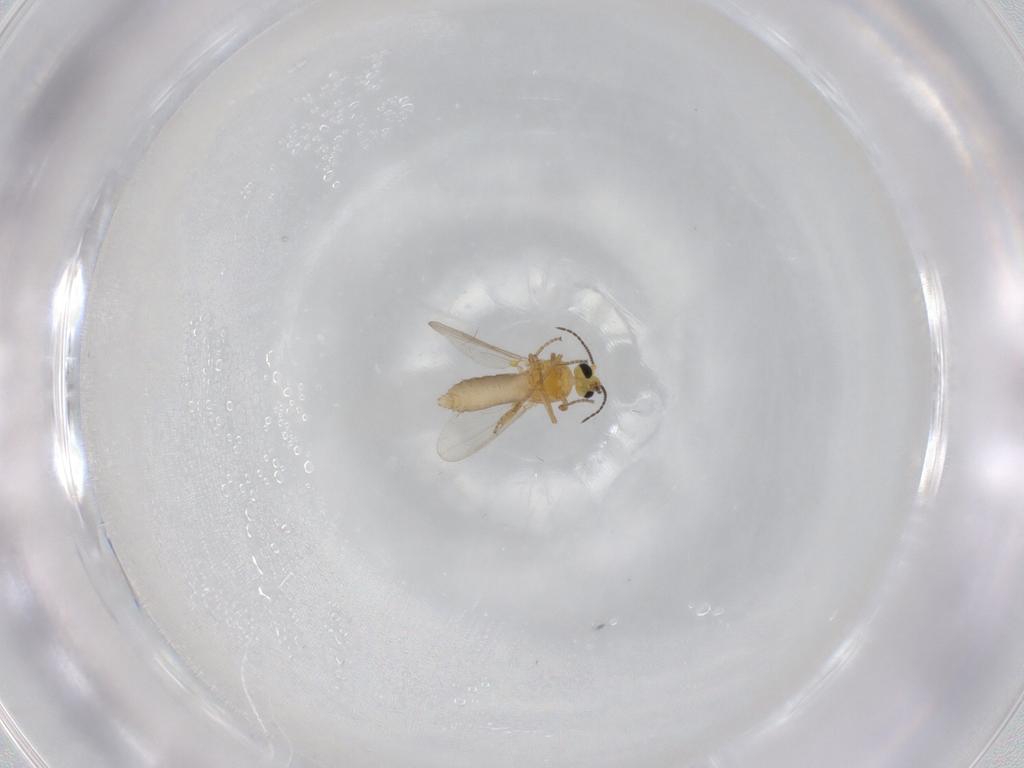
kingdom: Animalia
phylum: Arthropoda
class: Insecta
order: Diptera
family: Ceratopogonidae
